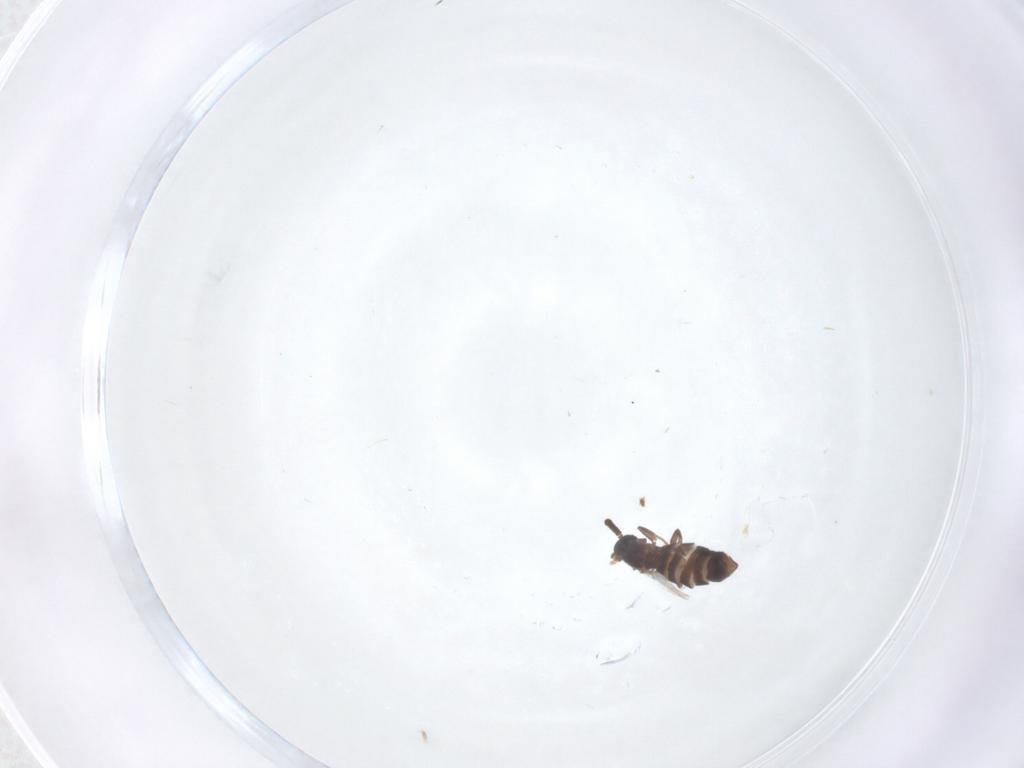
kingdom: Animalia
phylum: Arthropoda
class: Insecta
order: Diptera
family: Scatopsidae
